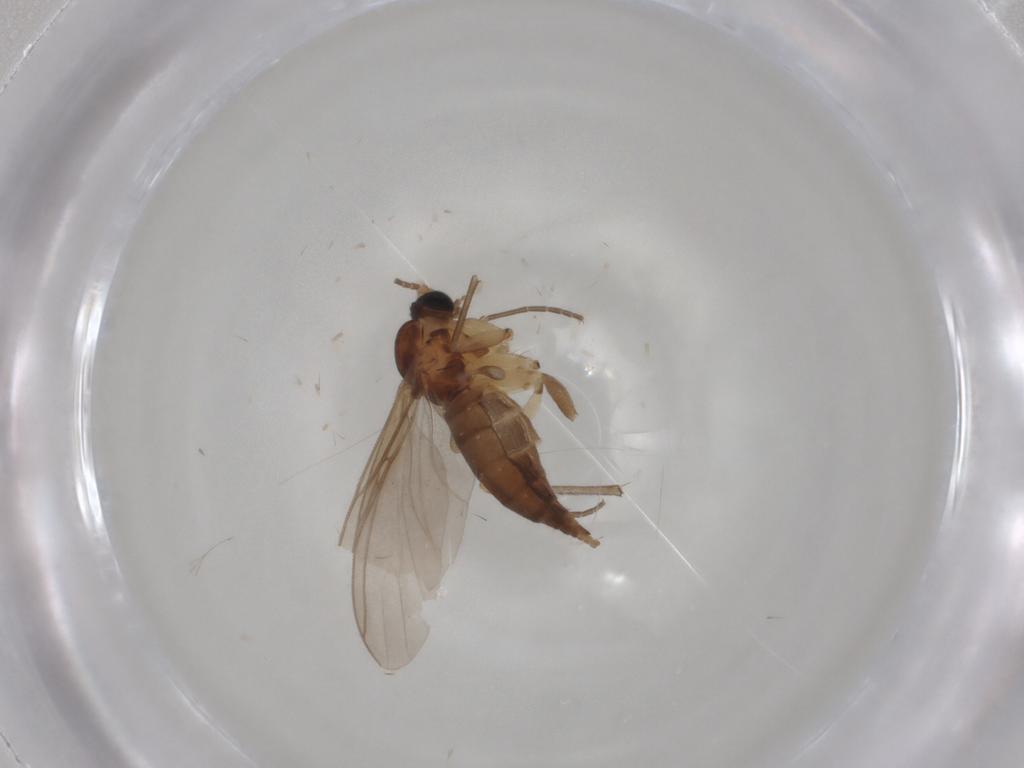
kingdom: Animalia
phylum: Arthropoda
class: Insecta
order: Diptera
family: Sciaridae
